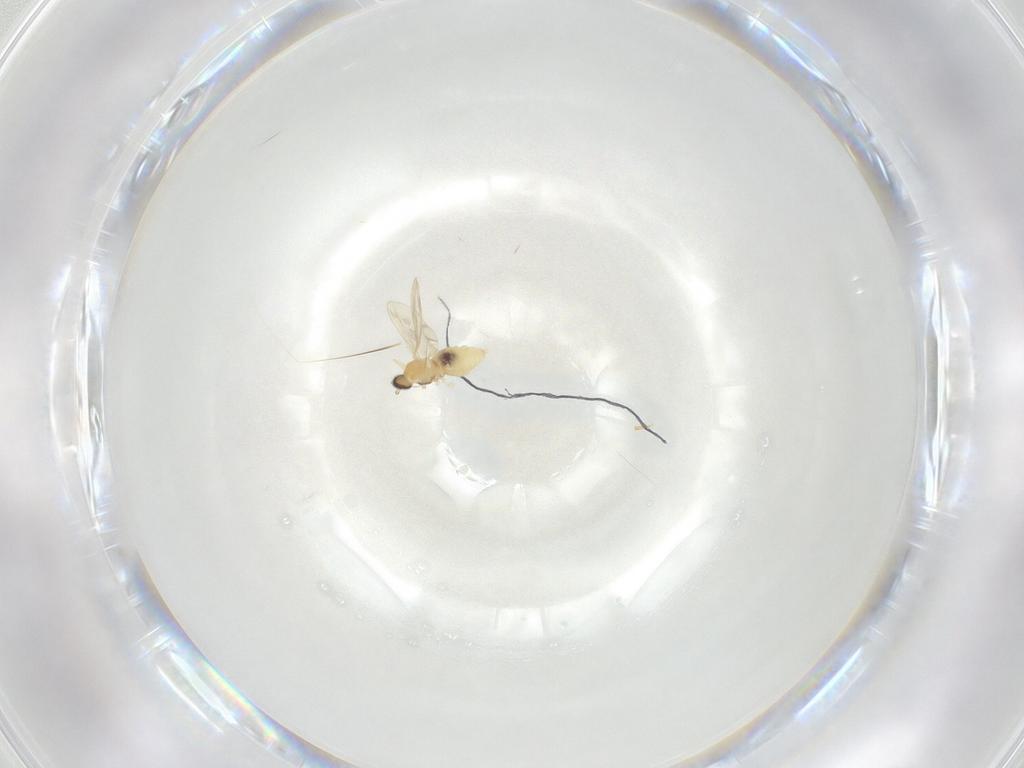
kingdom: Animalia
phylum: Arthropoda
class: Insecta
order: Diptera
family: Cecidomyiidae
